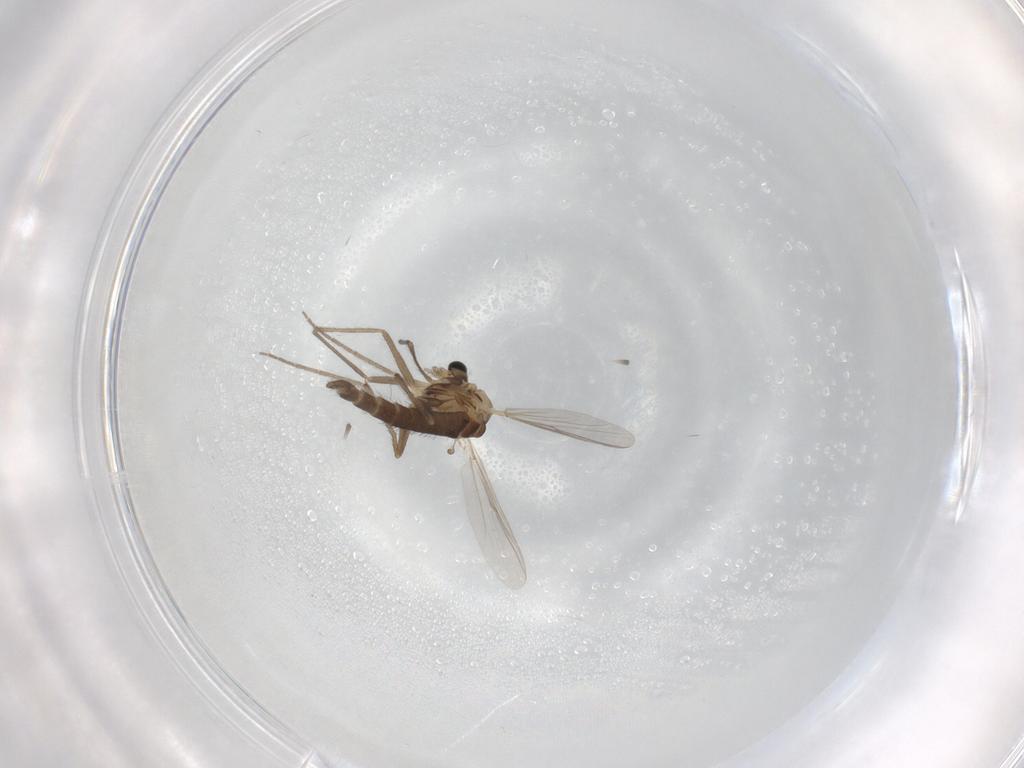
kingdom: Animalia
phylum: Arthropoda
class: Insecta
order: Diptera
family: Chironomidae
